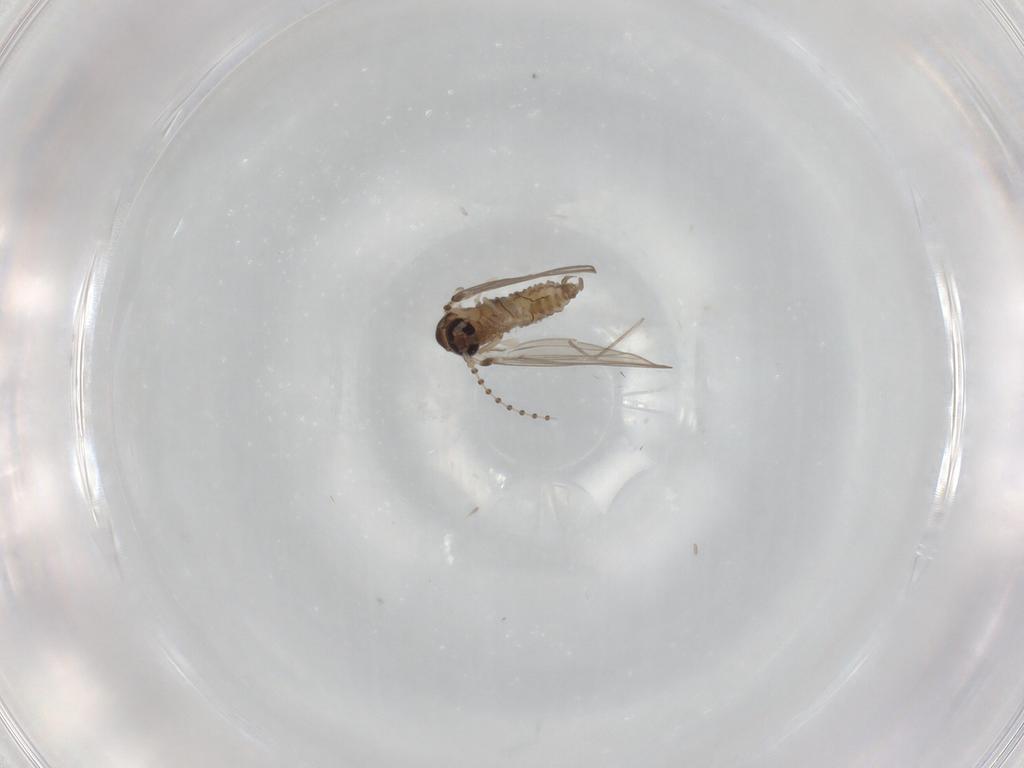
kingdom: Animalia
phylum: Arthropoda
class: Insecta
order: Diptera
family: Psychodidae
